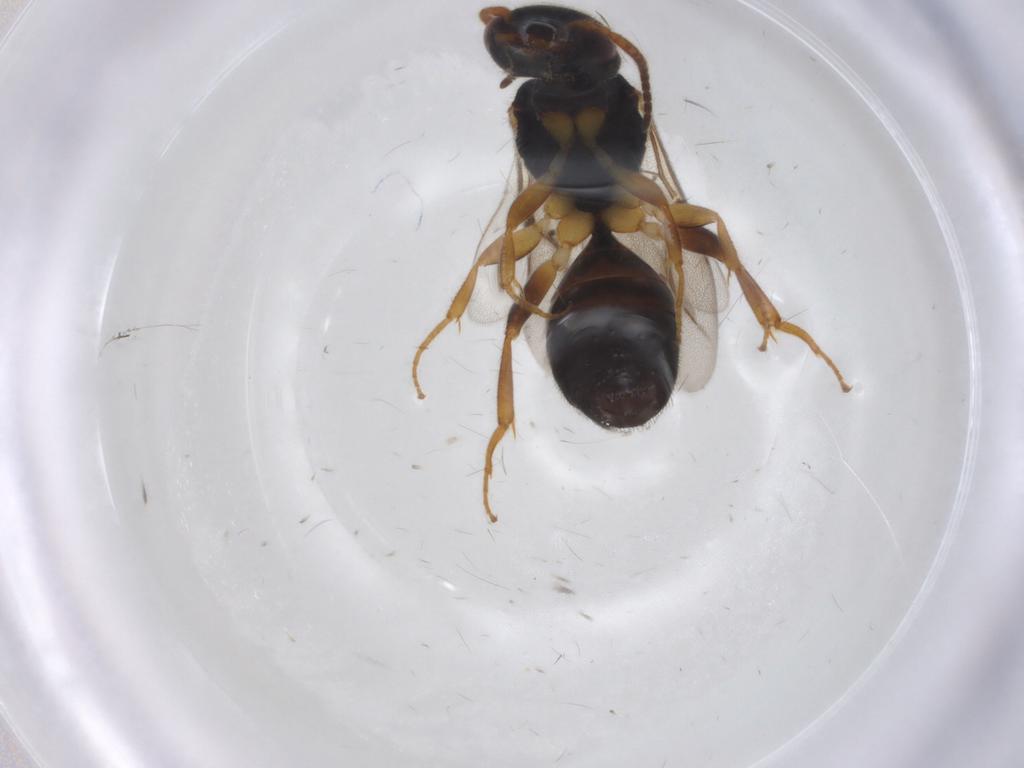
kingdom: Animalia
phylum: Arthropoda
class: Insecta
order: Hymenoptera
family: Bethylidae
